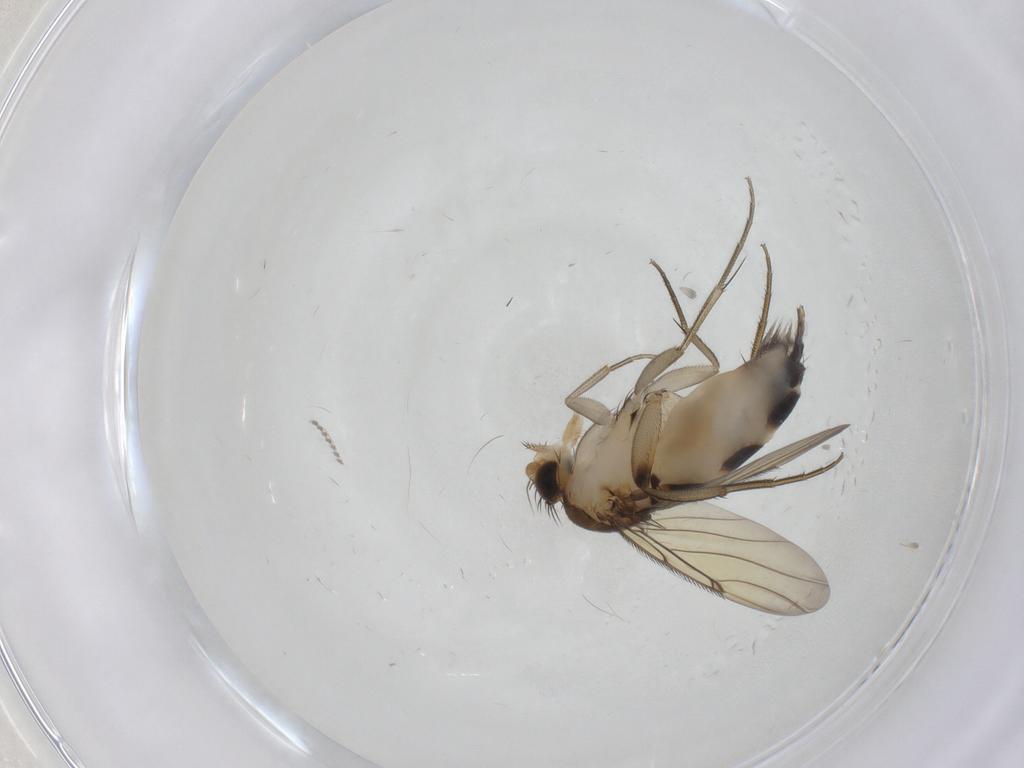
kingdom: Animalia
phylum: Arthropoda
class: Insecta
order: Diptera
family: Phoridae
